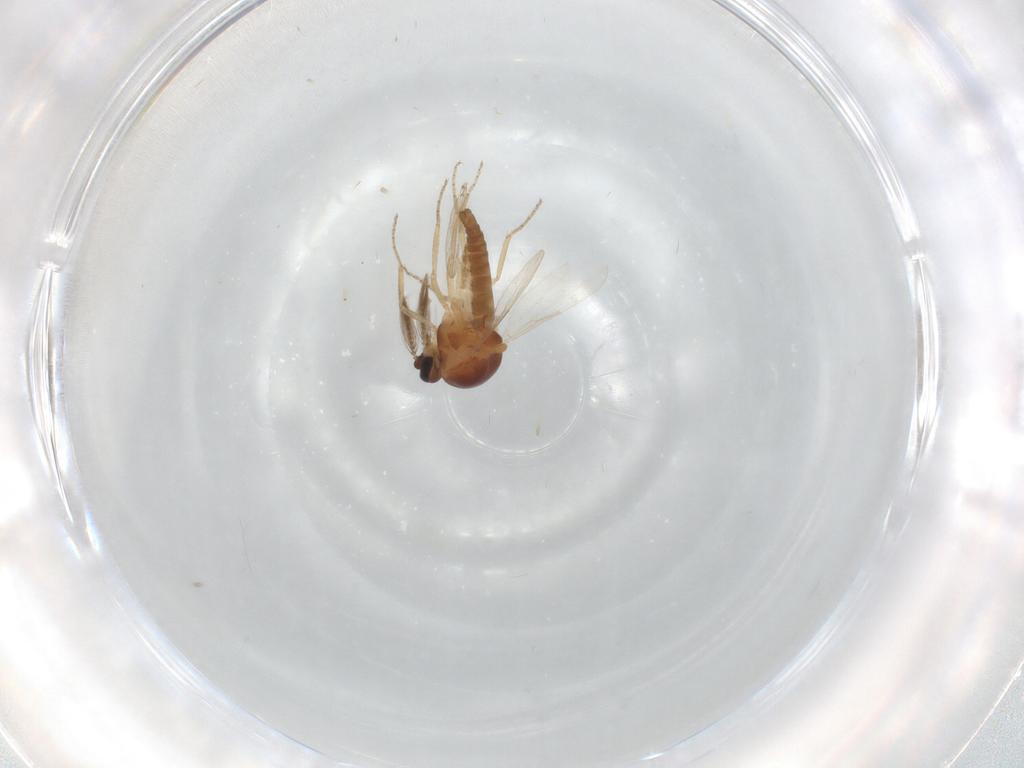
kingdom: Animalia
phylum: Arthropoda
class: Insecta
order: Diptera
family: Ceratopogonidae
